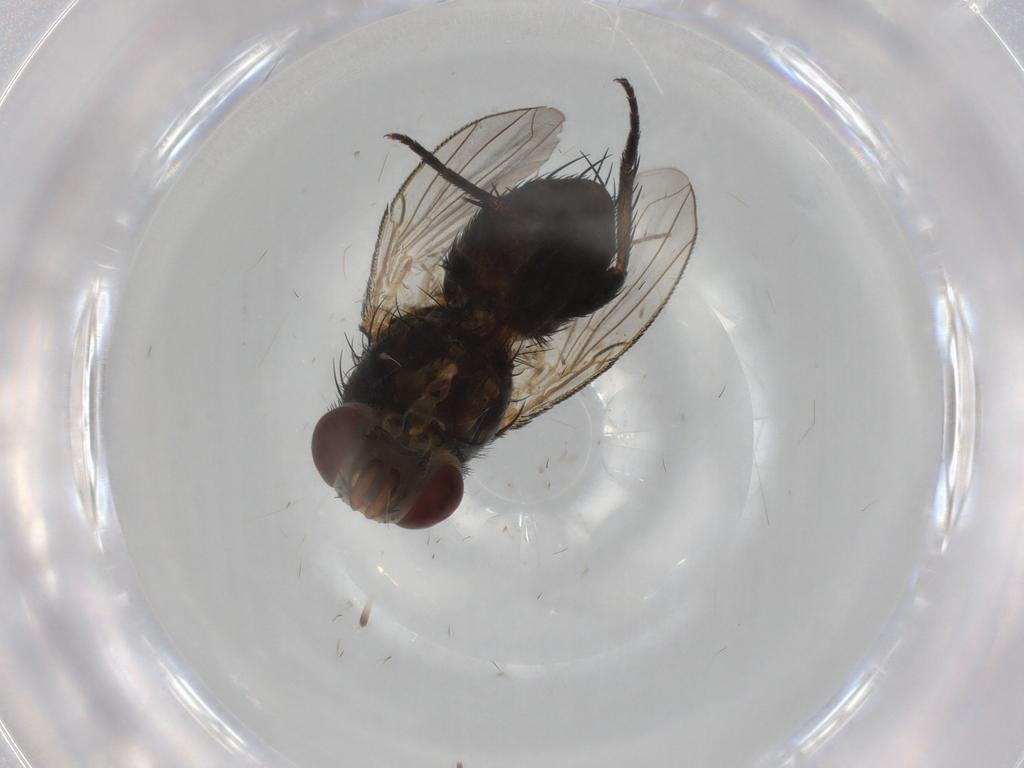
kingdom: Animalia
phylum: Arthropoda
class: Insecta
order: Diptera
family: Sciaridae
